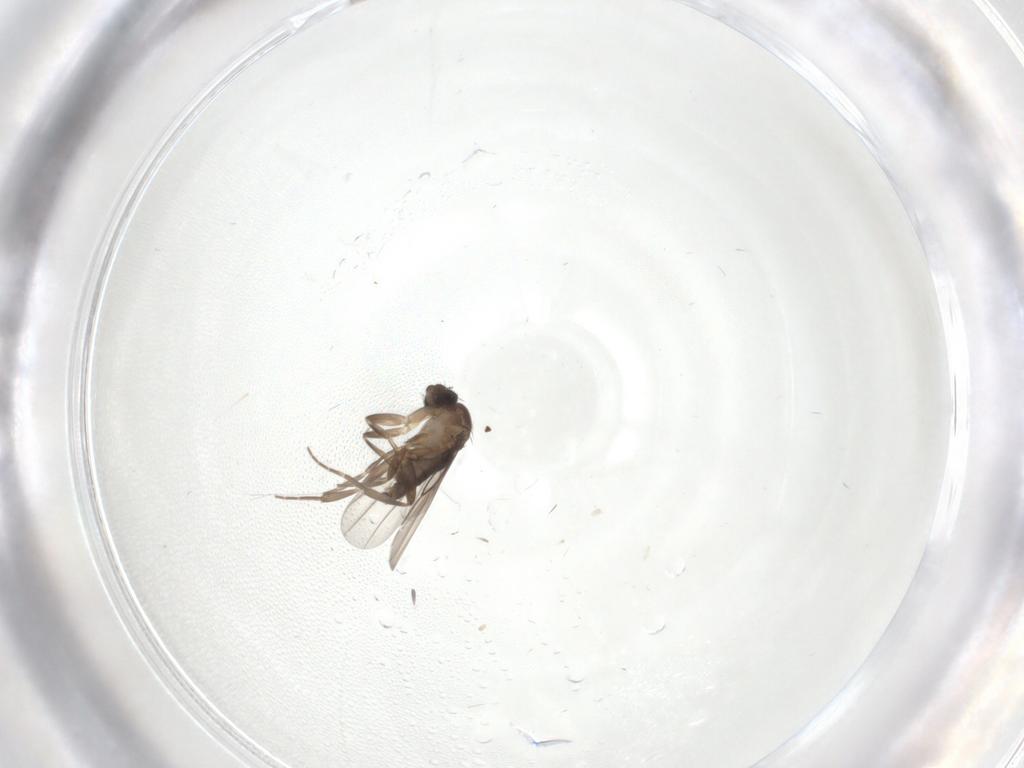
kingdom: Animalia
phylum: Arthropoda
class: Insecta
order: Diptera
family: Phoridae
